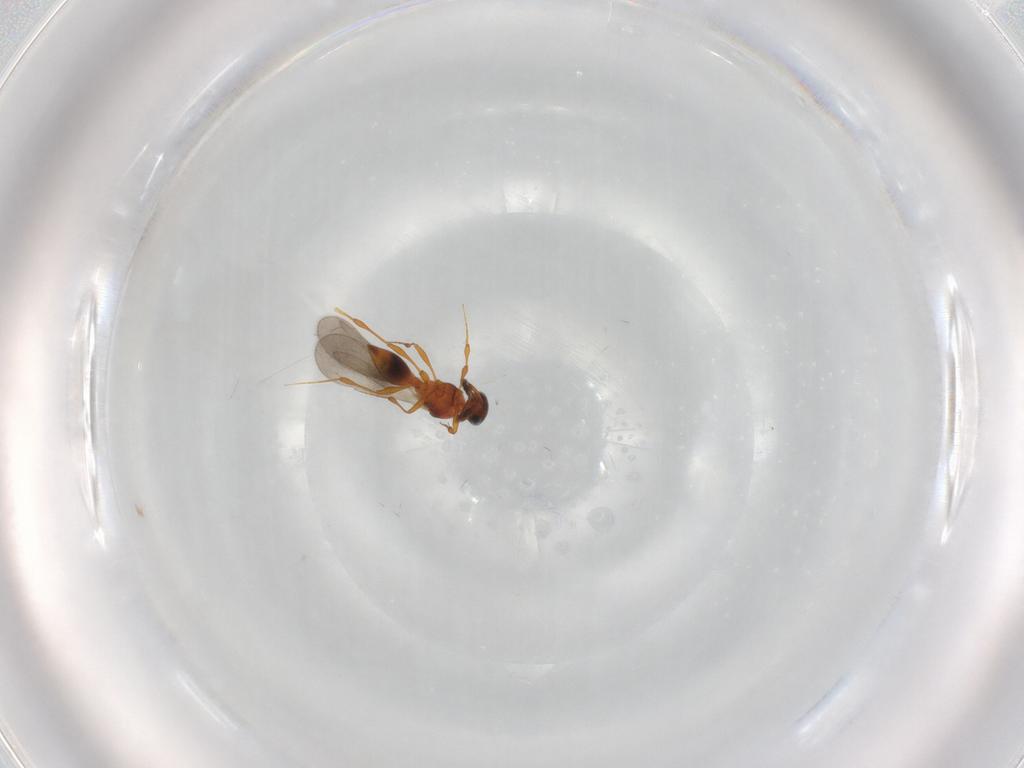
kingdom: Animalia
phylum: Arthropoda
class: Insecta
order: Hymenoptera
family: Platygastridae
